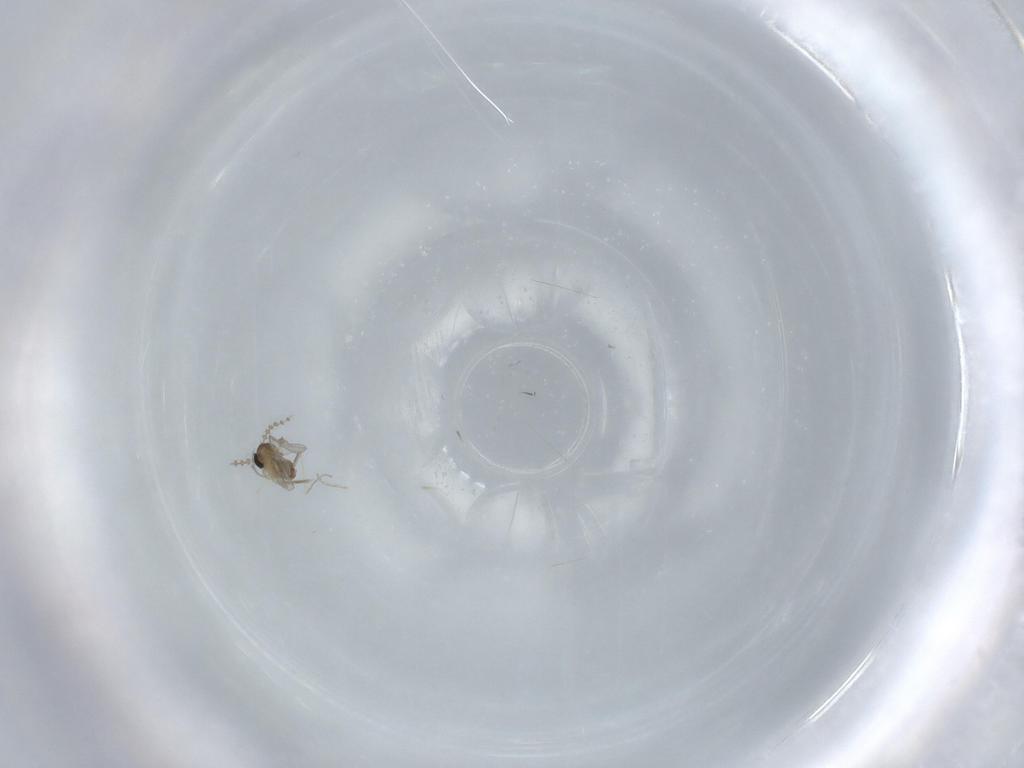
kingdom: Animalia
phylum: Arthropoda
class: Insecta
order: Diptera
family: Cecidomyiidae
